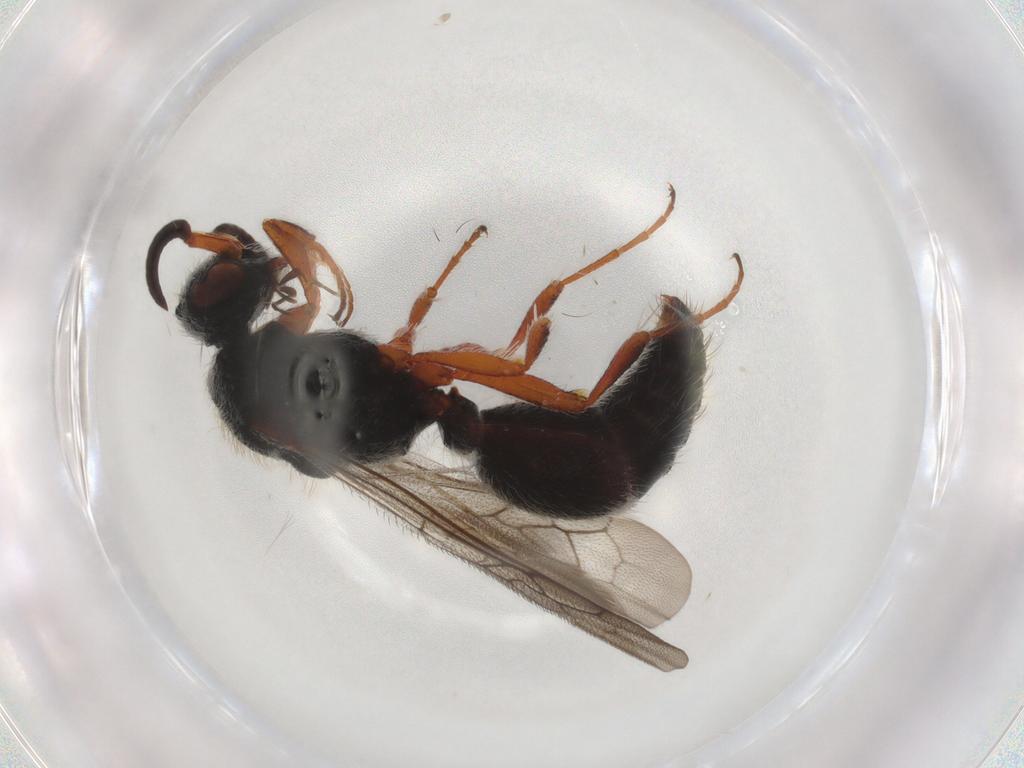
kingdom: Animalia
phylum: Arthropoda
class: Insecta
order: Hymenoptera
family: Mutillidae
